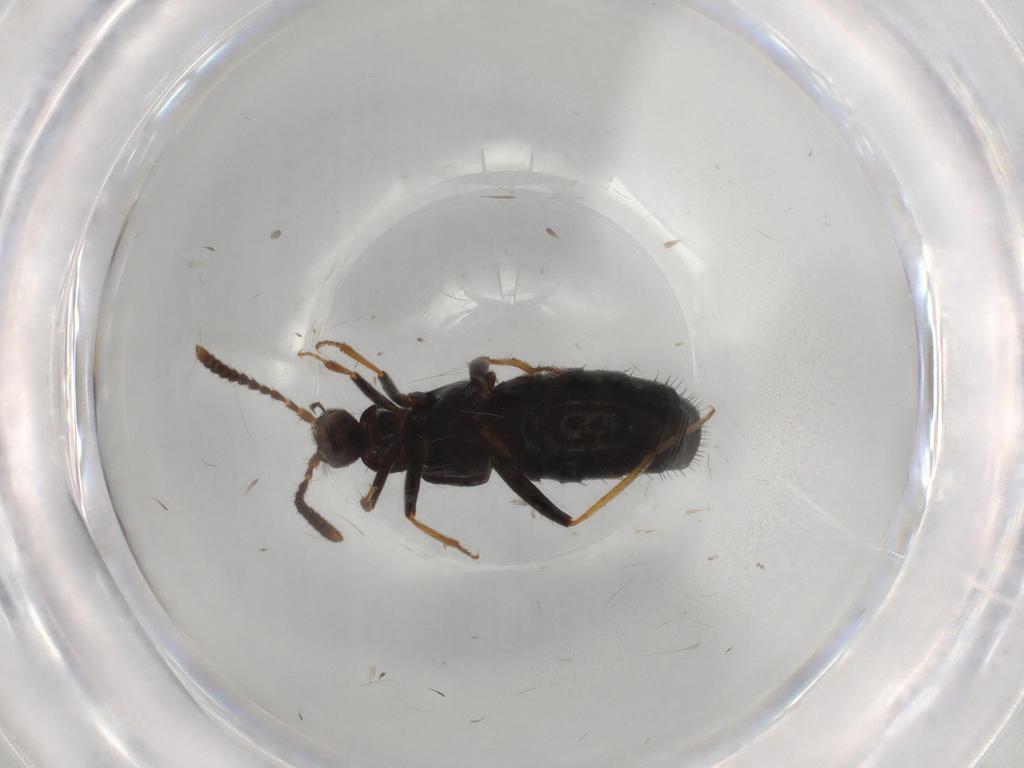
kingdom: Animalia
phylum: Arthropoda
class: Insecta
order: Coleoptera
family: Staphylinidae
